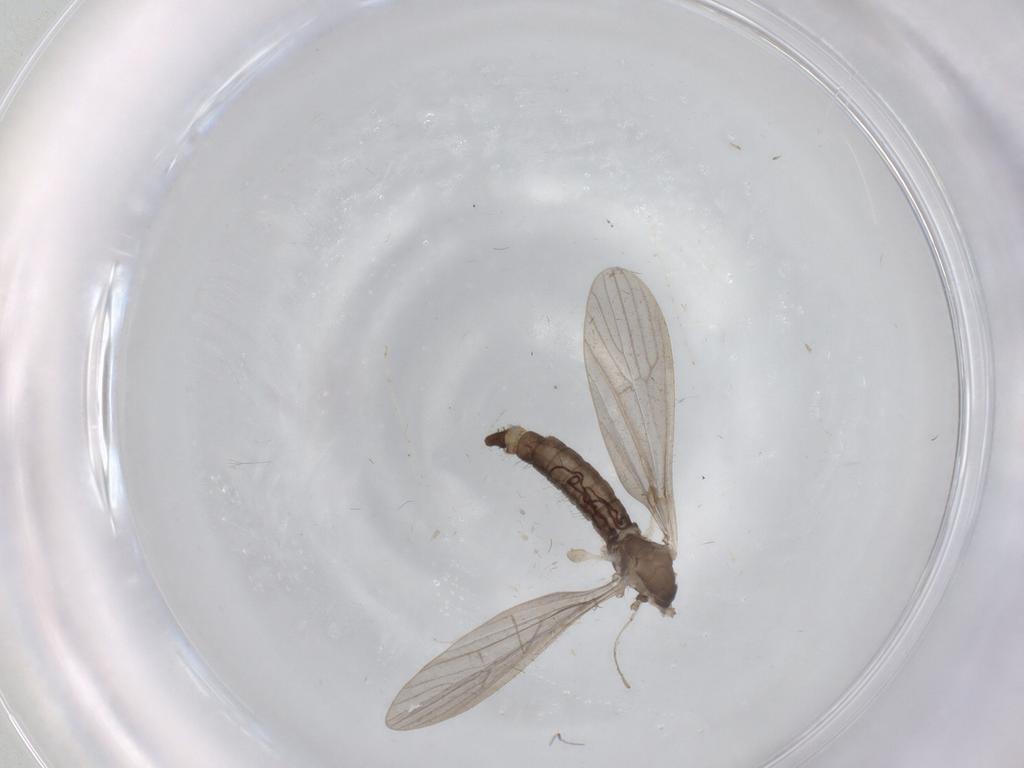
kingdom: Animalia
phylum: Arthropoda
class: Insecta
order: Diptera
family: Limoniidae
